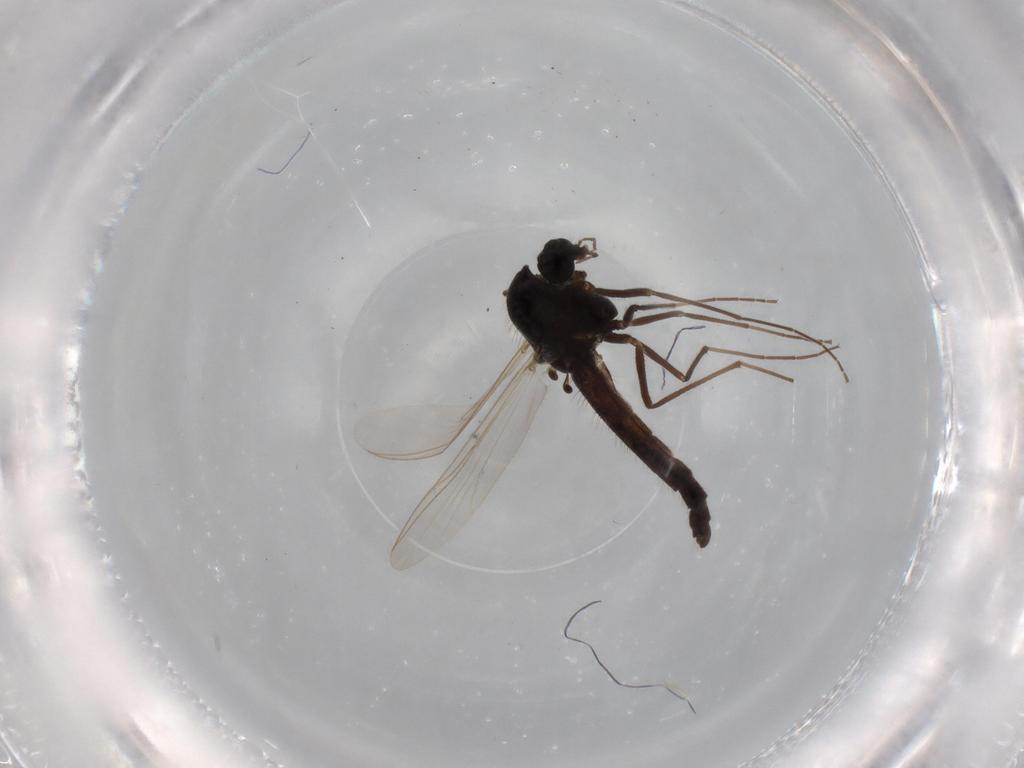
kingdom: Animalia
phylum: Arthropoda
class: Insecta
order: Diptera
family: Sciaridae
